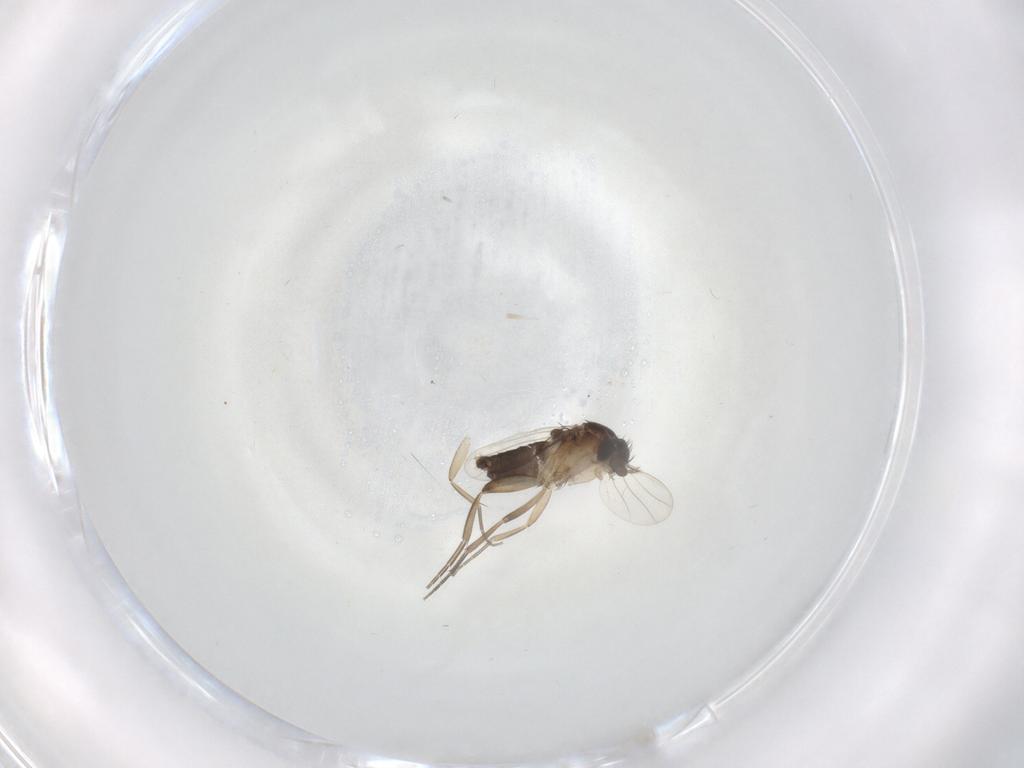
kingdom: Animalia
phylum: Arthropoda
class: Insecta
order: Diptera
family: Phoridae
